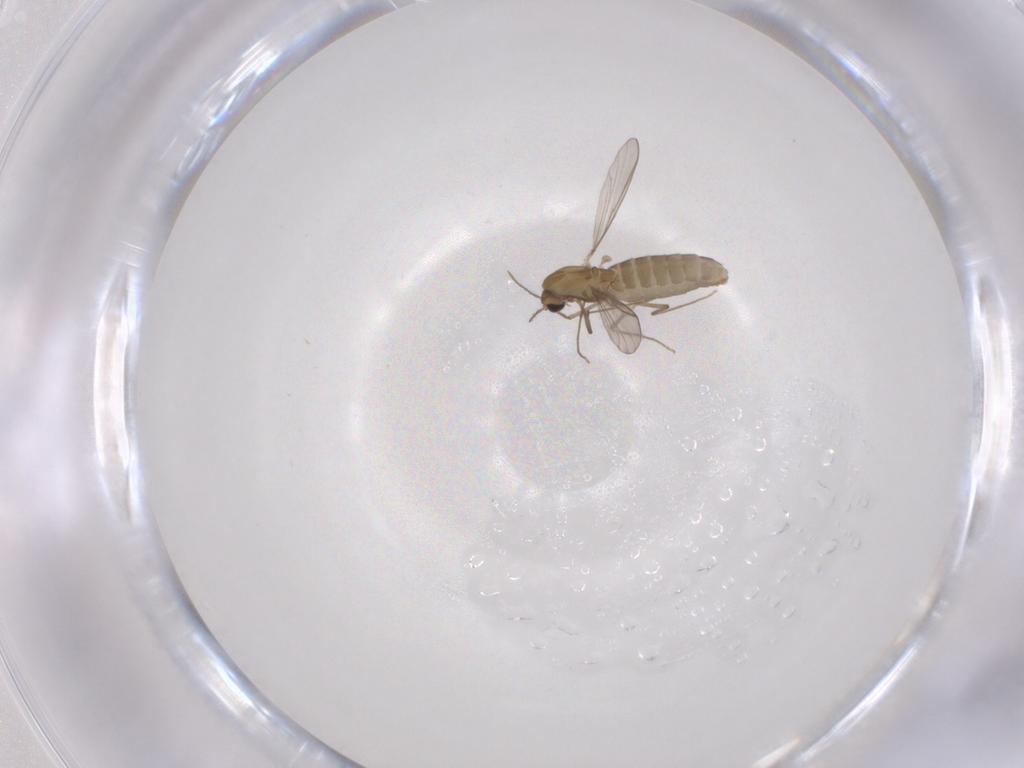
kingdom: Animalia
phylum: Arthropoda
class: Insecta
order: Diptera
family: Chironomidae
